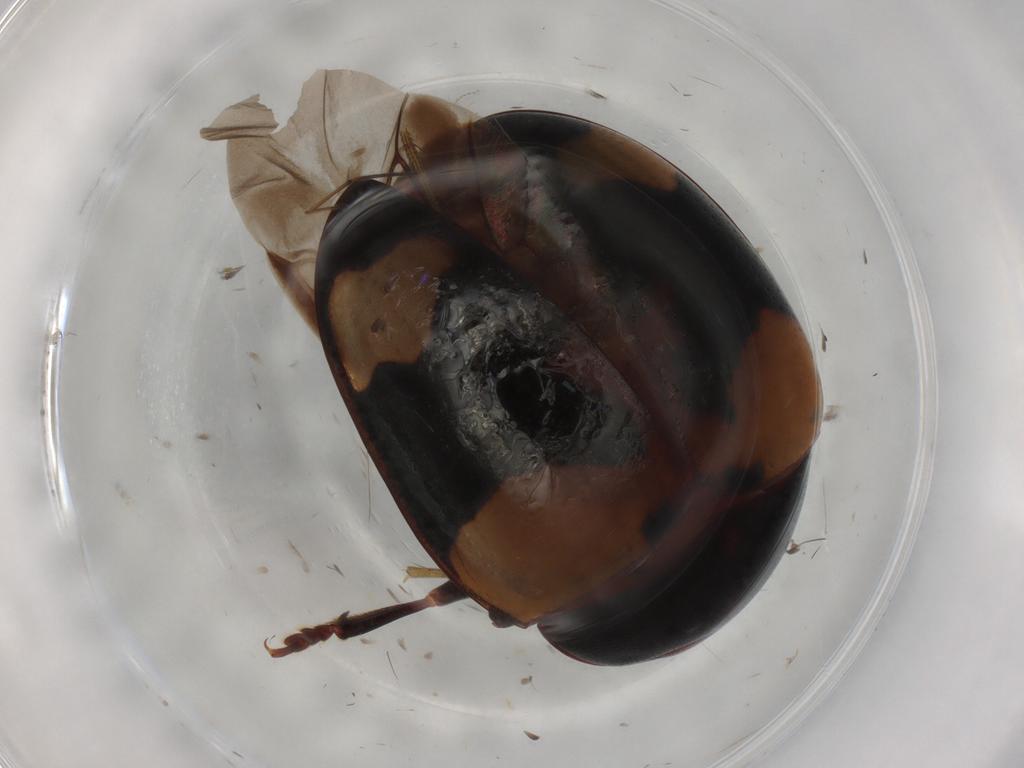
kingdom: Animalia
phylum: Arthropoda
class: Insecta
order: Coleoptera
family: Erotylidae
